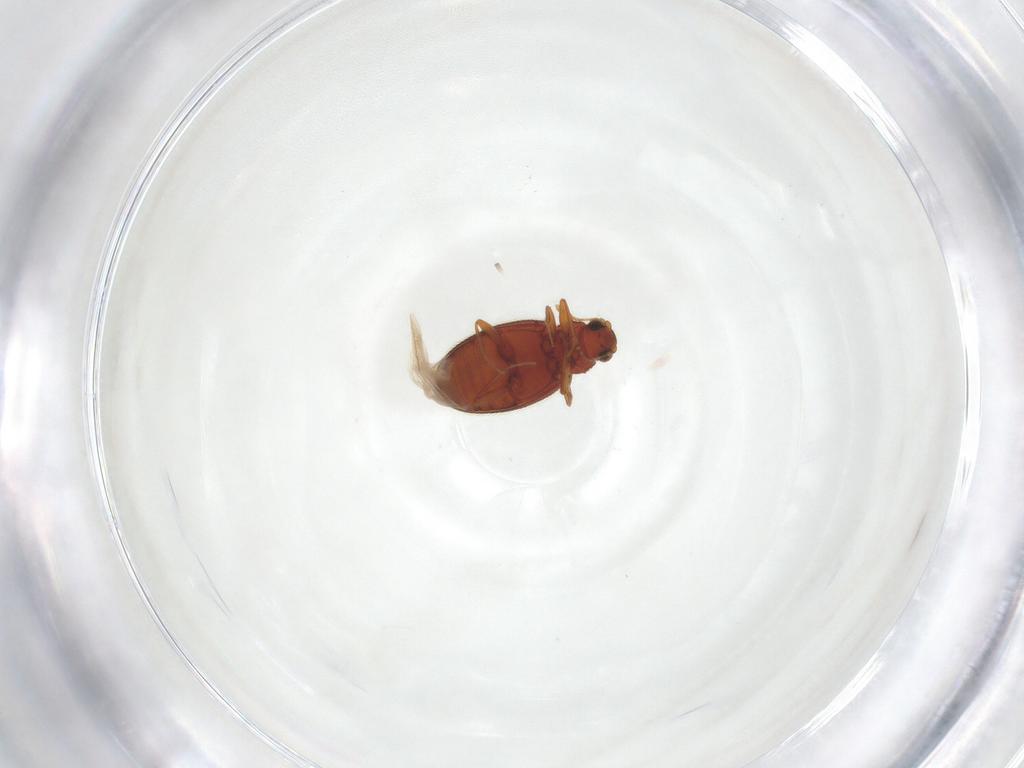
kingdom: Animalia
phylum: Arthropoda
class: Insecta
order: Coleoptera
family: Latridiidae
